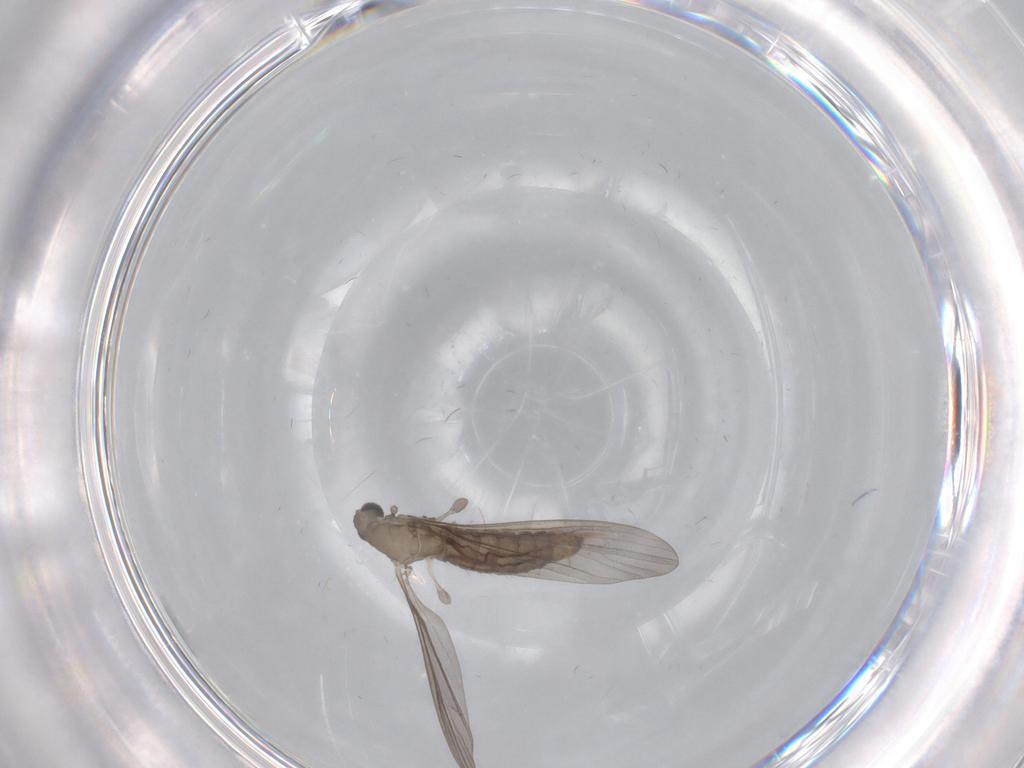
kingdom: Animalia
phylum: Arthropoda
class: Insecta
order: Diptera
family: Limoniidae
